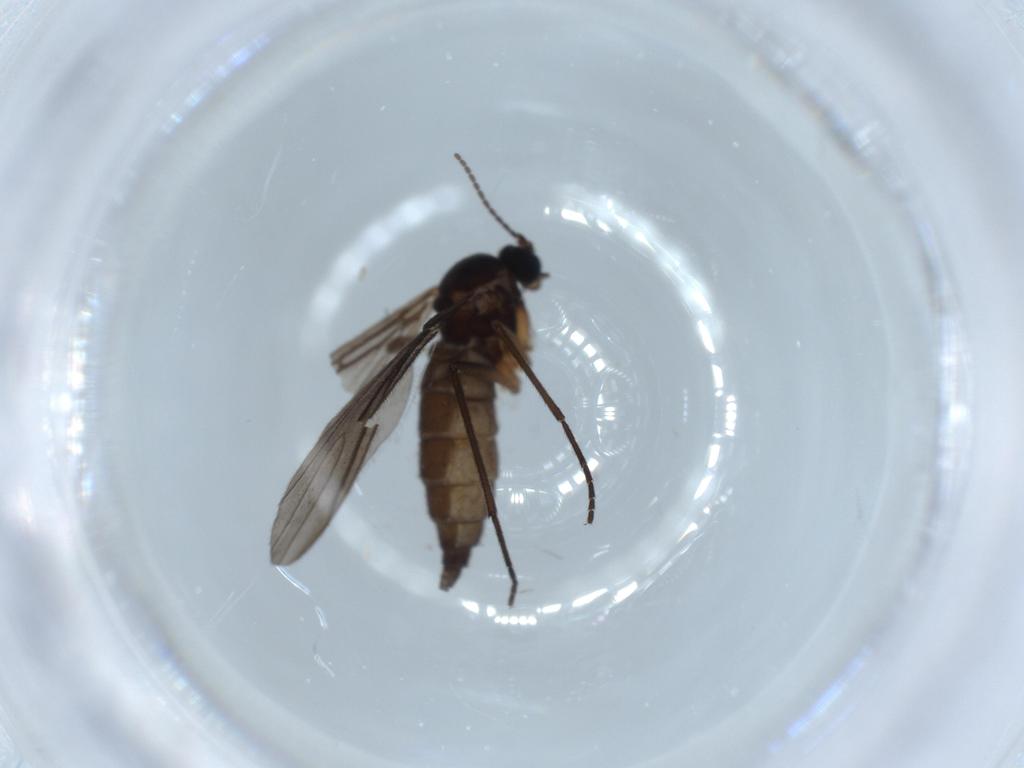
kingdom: Animalia
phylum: Arthropoda
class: Insecta
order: Diptera
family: Sciaridae
